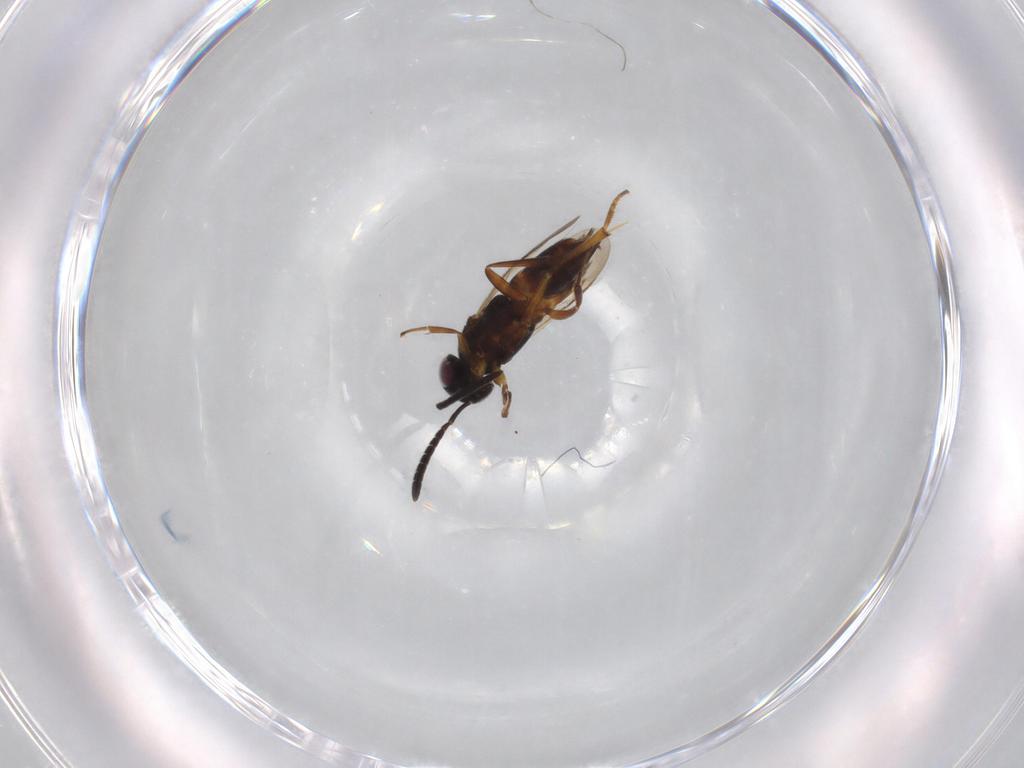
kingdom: Animalia
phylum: Arthropoda
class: Insecta
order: Hymenoptera
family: Encyrtidae
